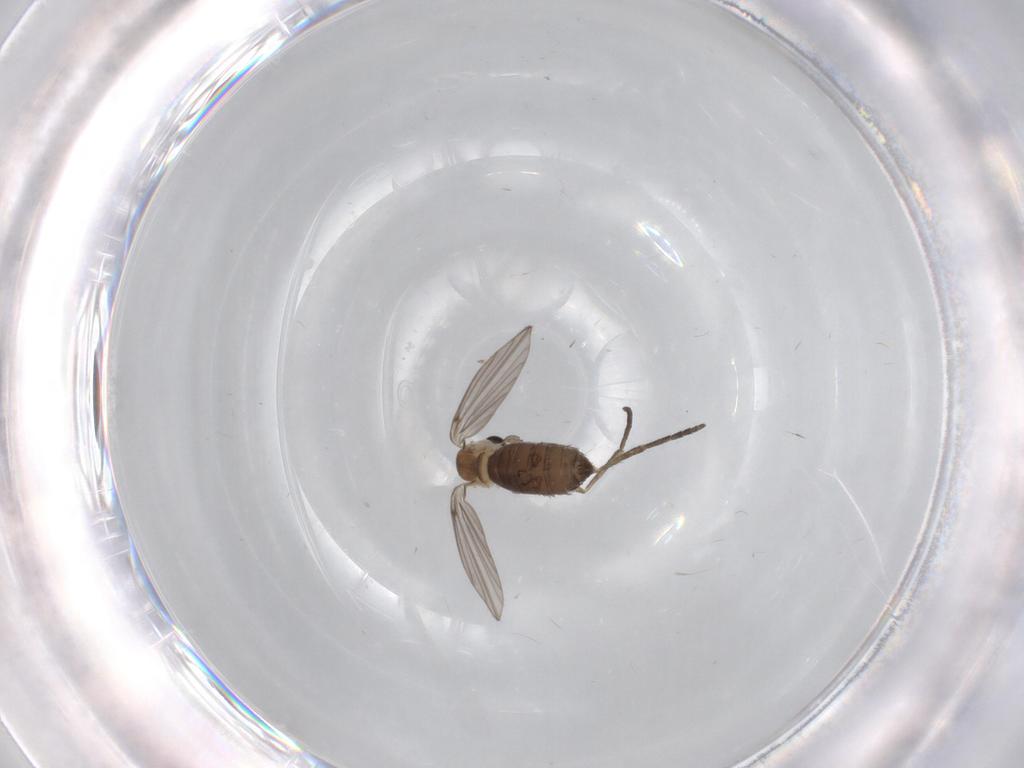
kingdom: Animalia
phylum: Arthropoda
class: Insecta
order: Diptera
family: Psychodidae
